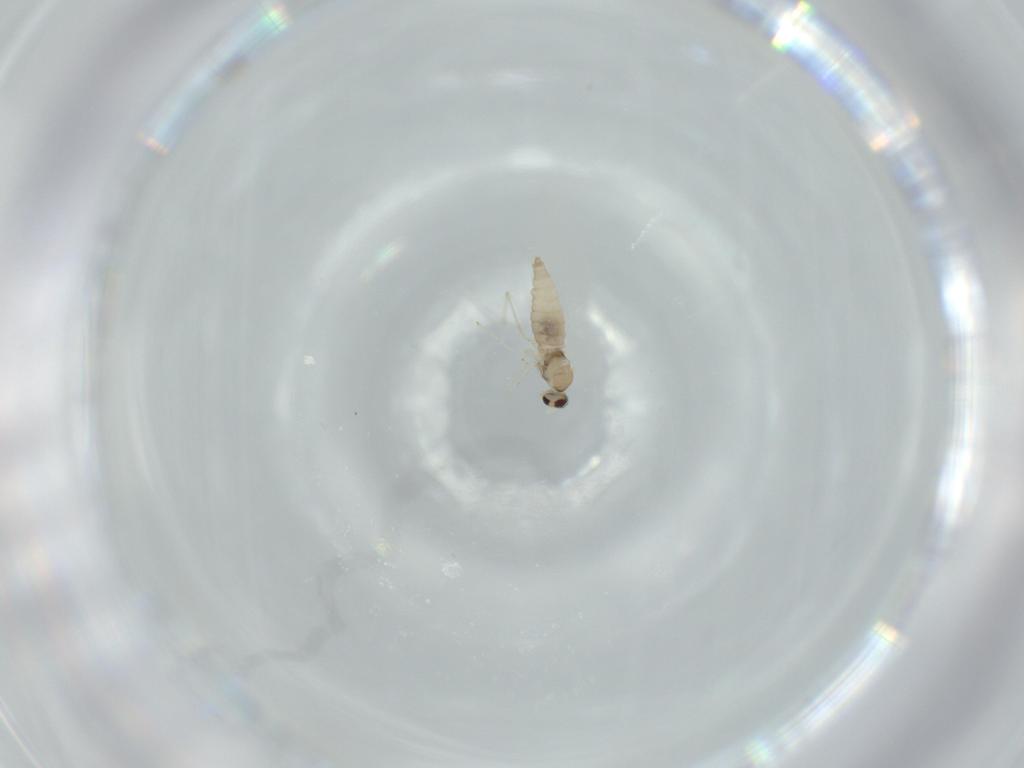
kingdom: Animalia
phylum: Arthropoda
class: Insecta
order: Diptera
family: Cecidomyiidae
